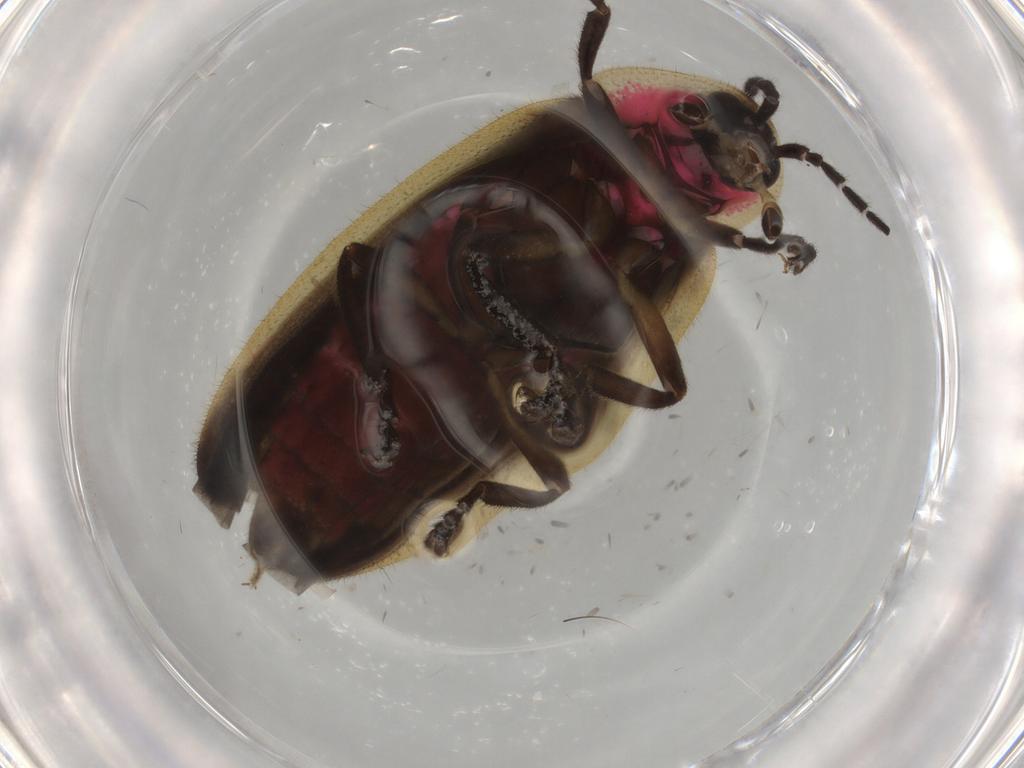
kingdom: Animalia
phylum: Arthropoda
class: Insecta
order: Coleoptera
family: Lampyridae
